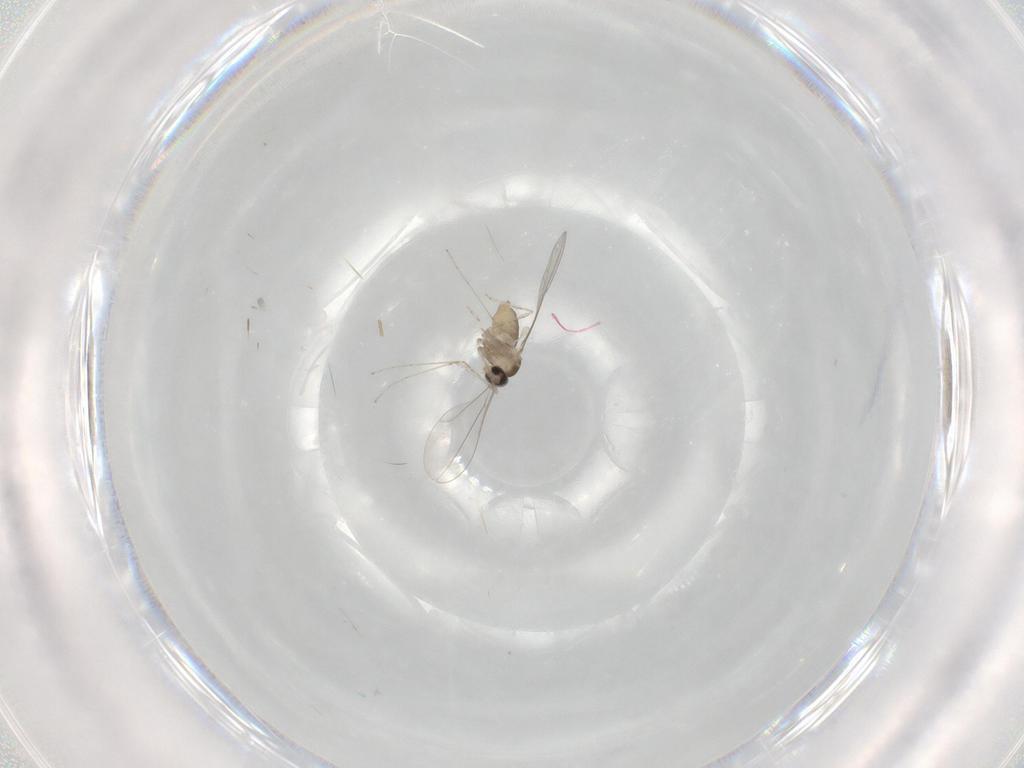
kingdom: Animalia
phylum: Arthropoda
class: Insecta
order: Diptera
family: Cecidomyiidae
